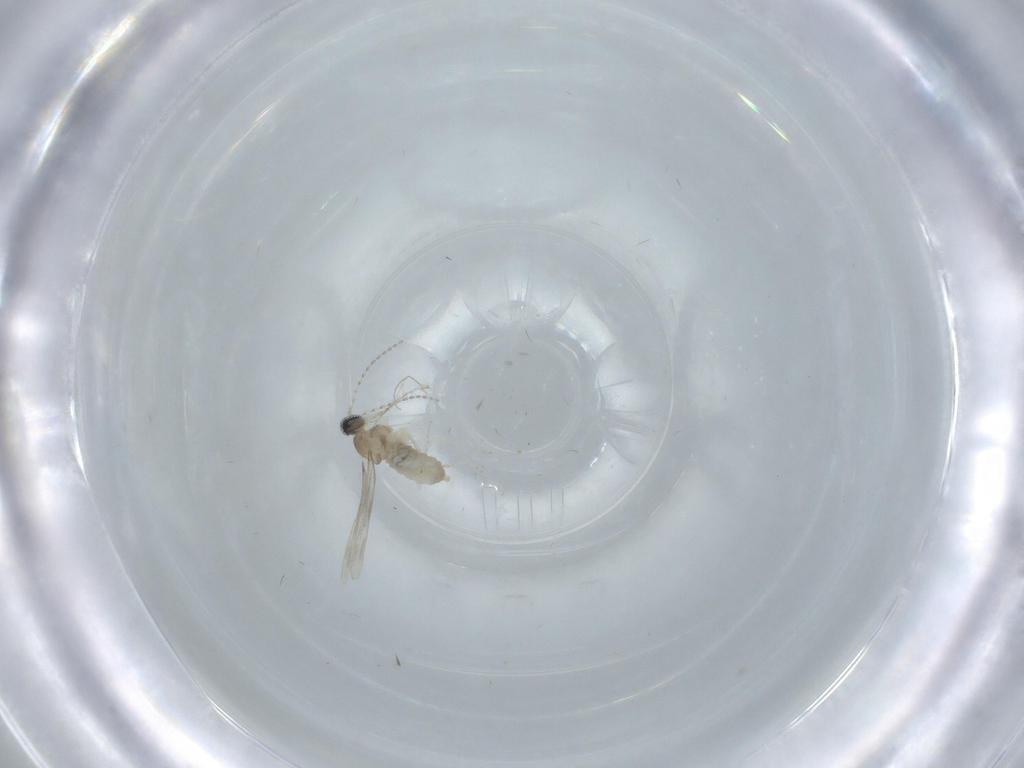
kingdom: Animalia
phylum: Arthropoda
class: Insecta
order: Diptera
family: Cecidomyiidae
